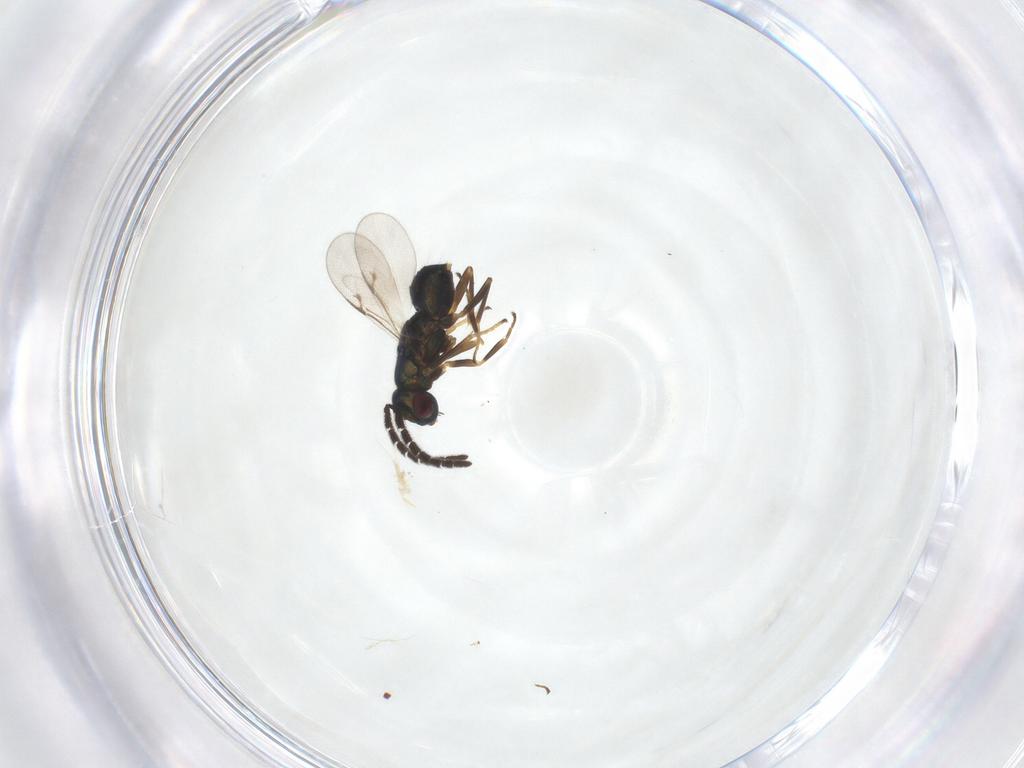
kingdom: Animalia
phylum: Arthropoda
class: Insecta
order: Hymenoptera
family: Encyrtidae
